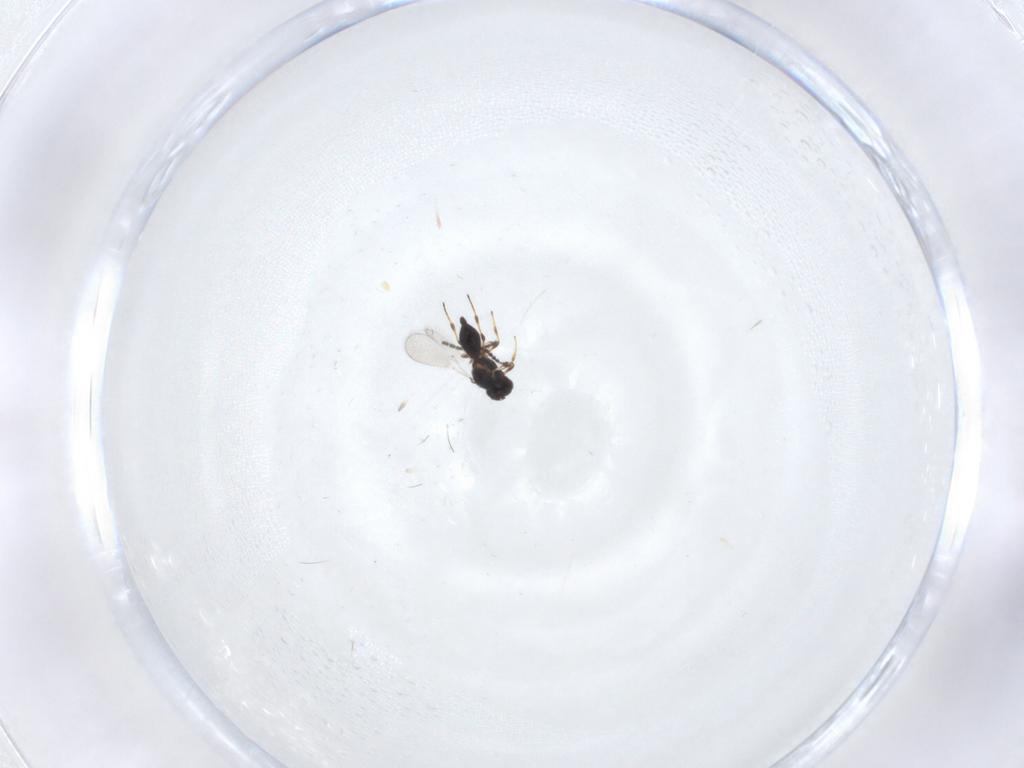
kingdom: Animalia
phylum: Arthropoda
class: Insecta
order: Hymenoptera
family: Platygastridae
